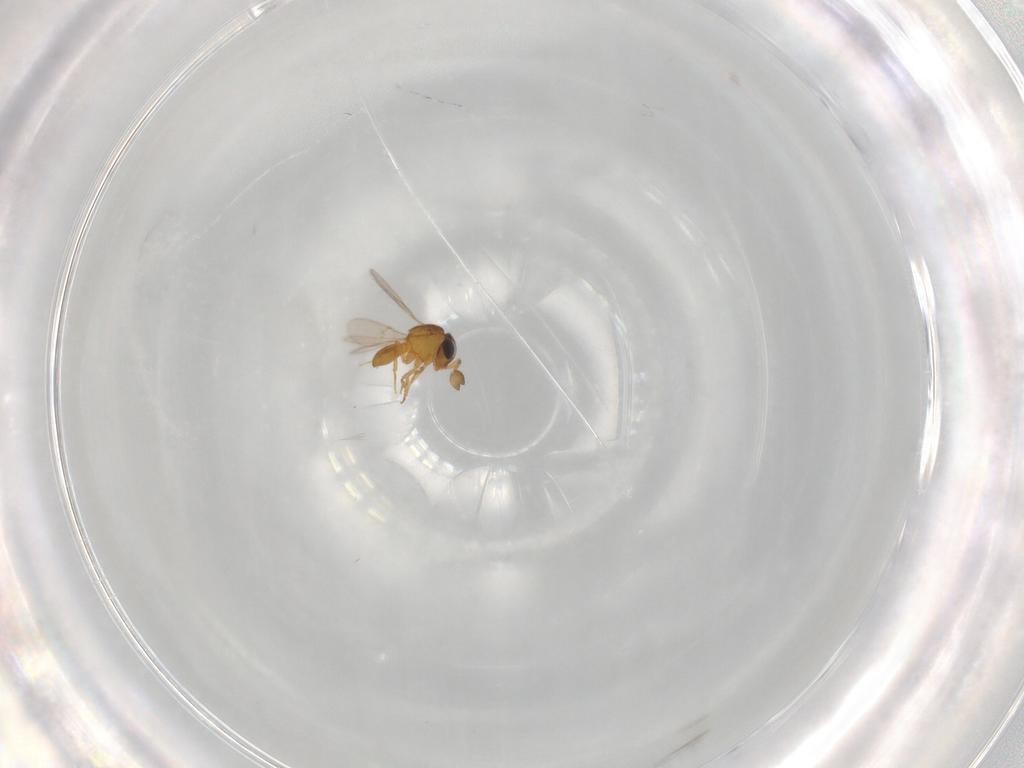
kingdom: Animalia
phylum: Arthropoda
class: Insecta
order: Hymenoptera
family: Scelionidae
